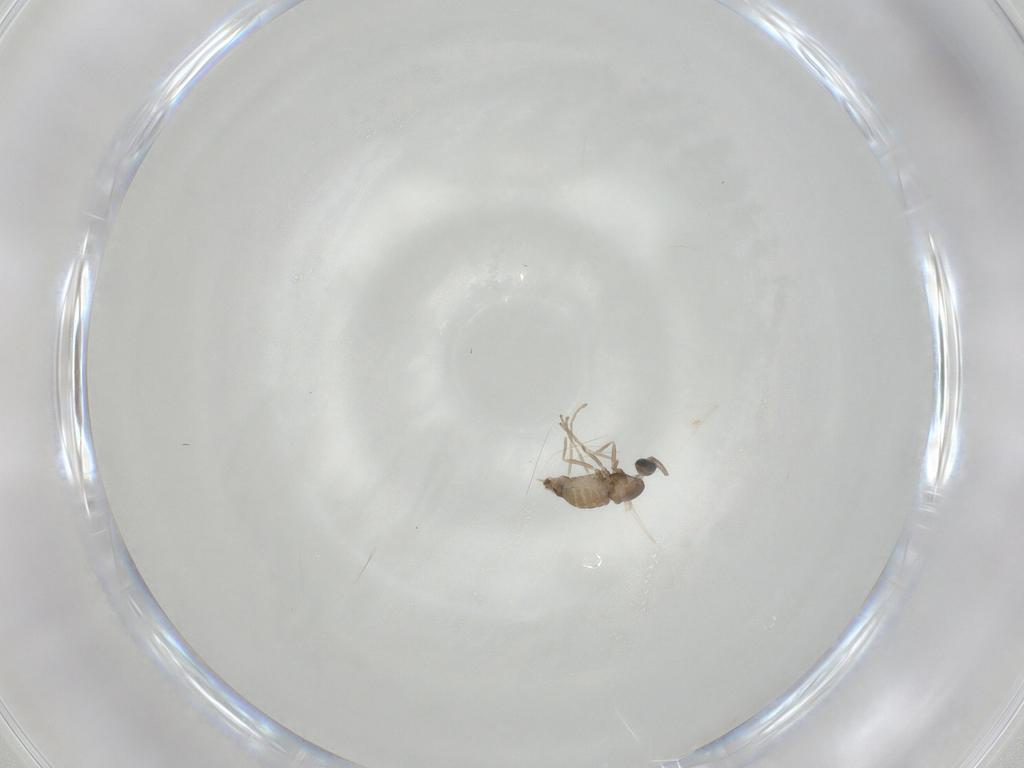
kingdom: Animalia
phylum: Arthropoda
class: Insecta
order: Diptera
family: Cecidomyiidae
